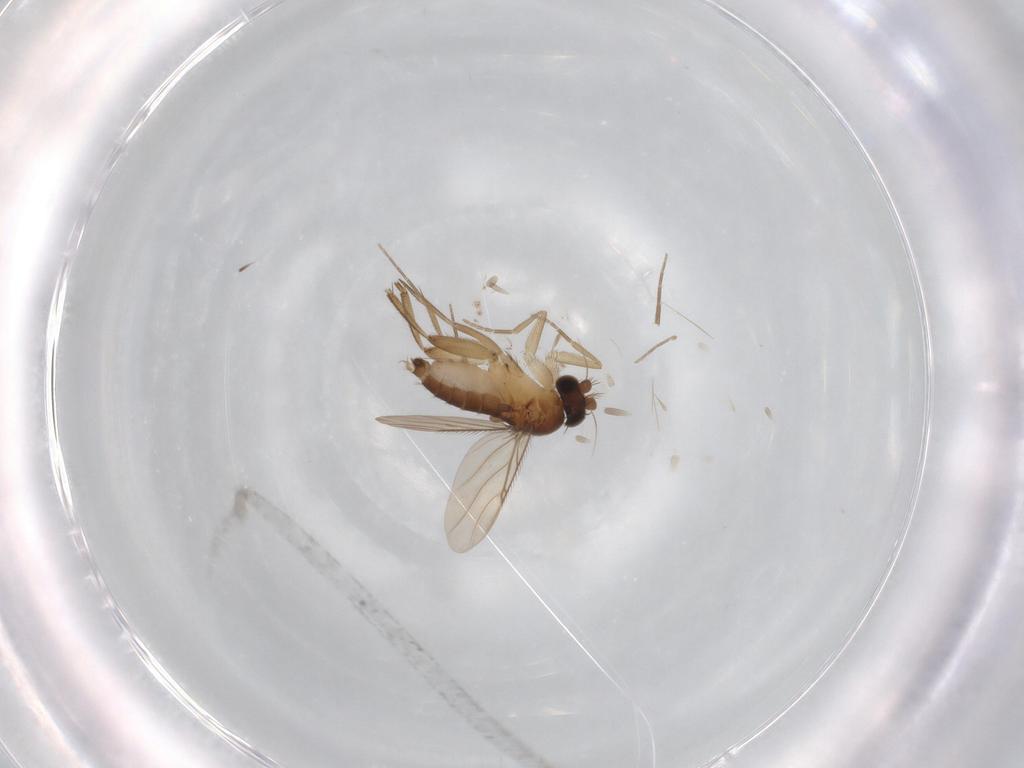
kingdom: Animalia
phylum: Arthropoda
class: Insecta
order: Diptera
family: Phoridae
